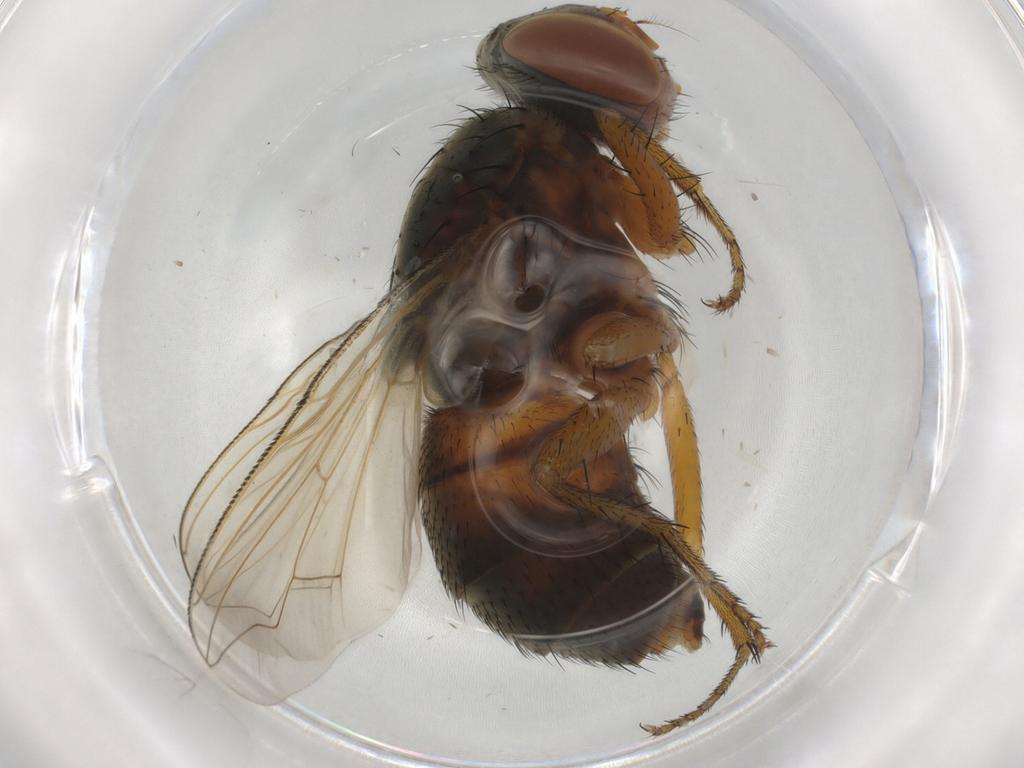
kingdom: Animalia
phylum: Arthropoda
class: Insecta
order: Diptera
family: Sarcophagidae
